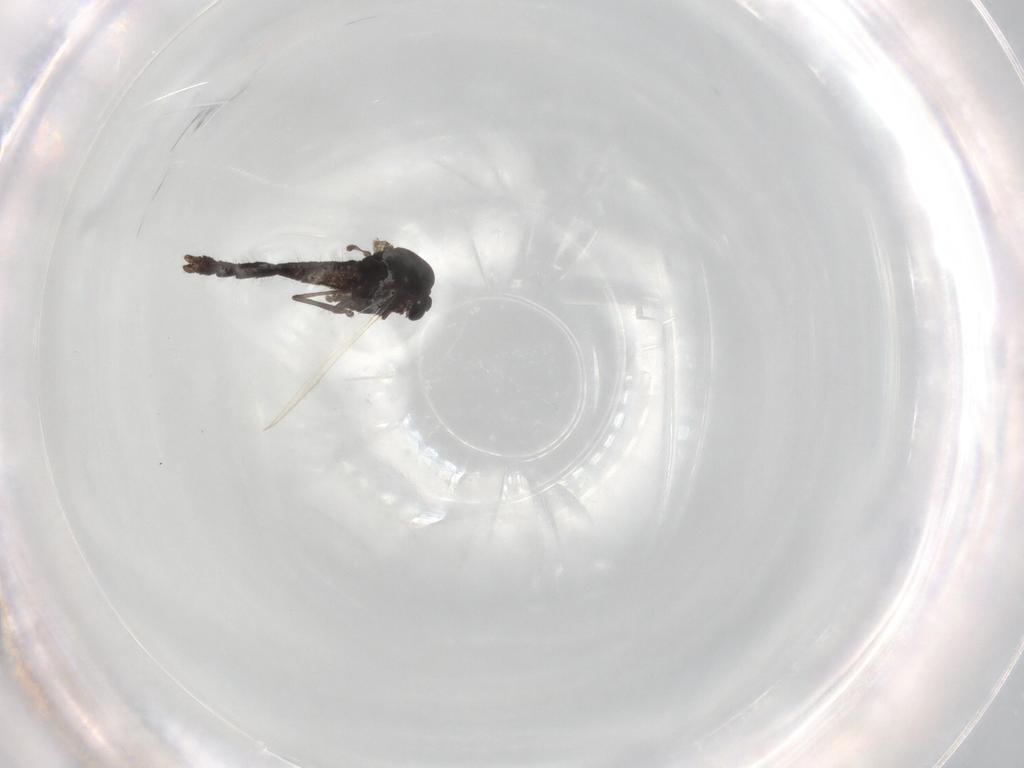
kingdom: Animalia
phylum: Arthropoda
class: Insecta
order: Diptera
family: Chironomidae
